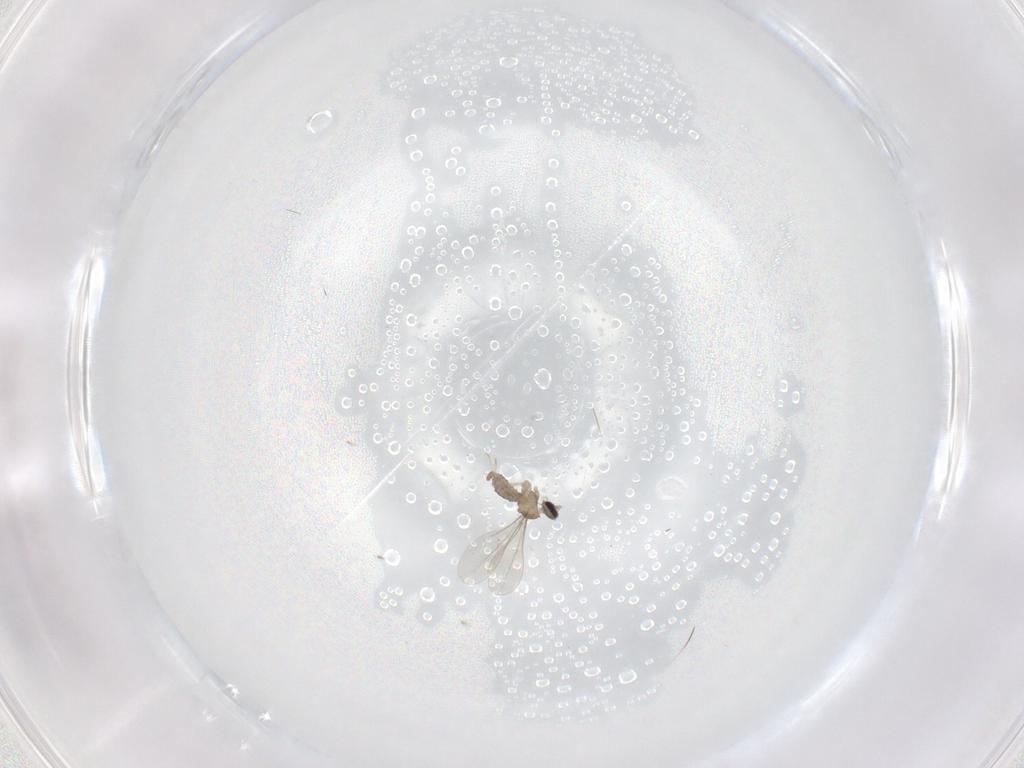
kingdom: Animalia
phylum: Arthropoda
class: Insecta
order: Diptera
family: Cecidomyiidae
